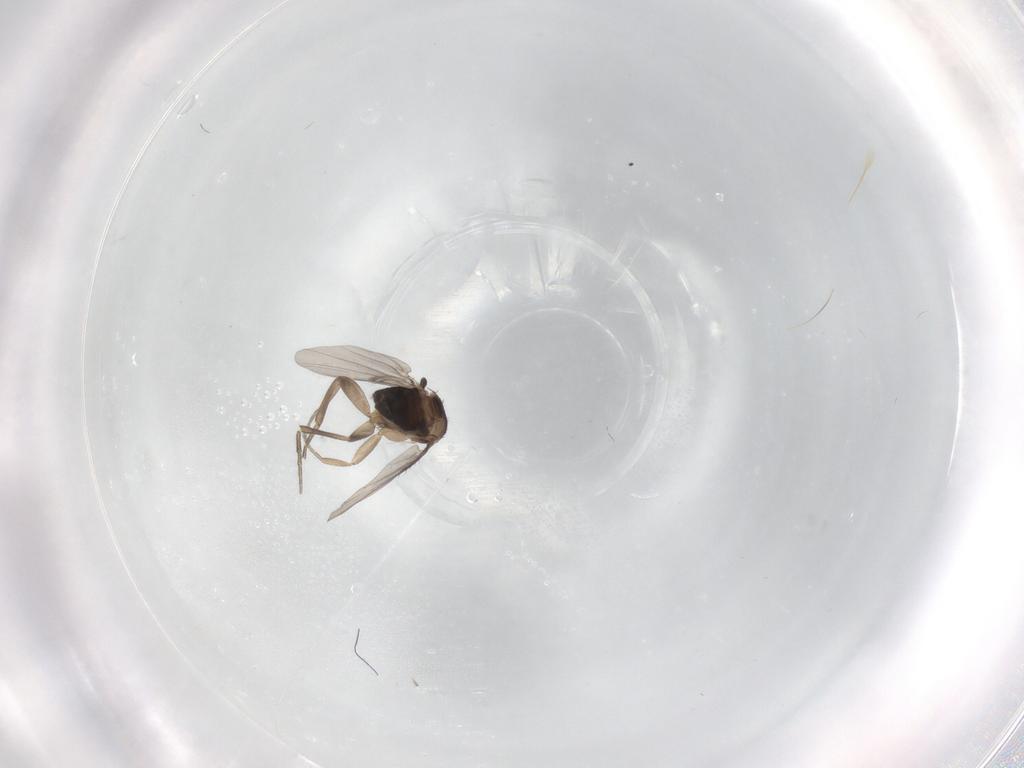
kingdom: Animalia
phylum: Arthropoda
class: Insecta
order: Diptera
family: Phoridae
